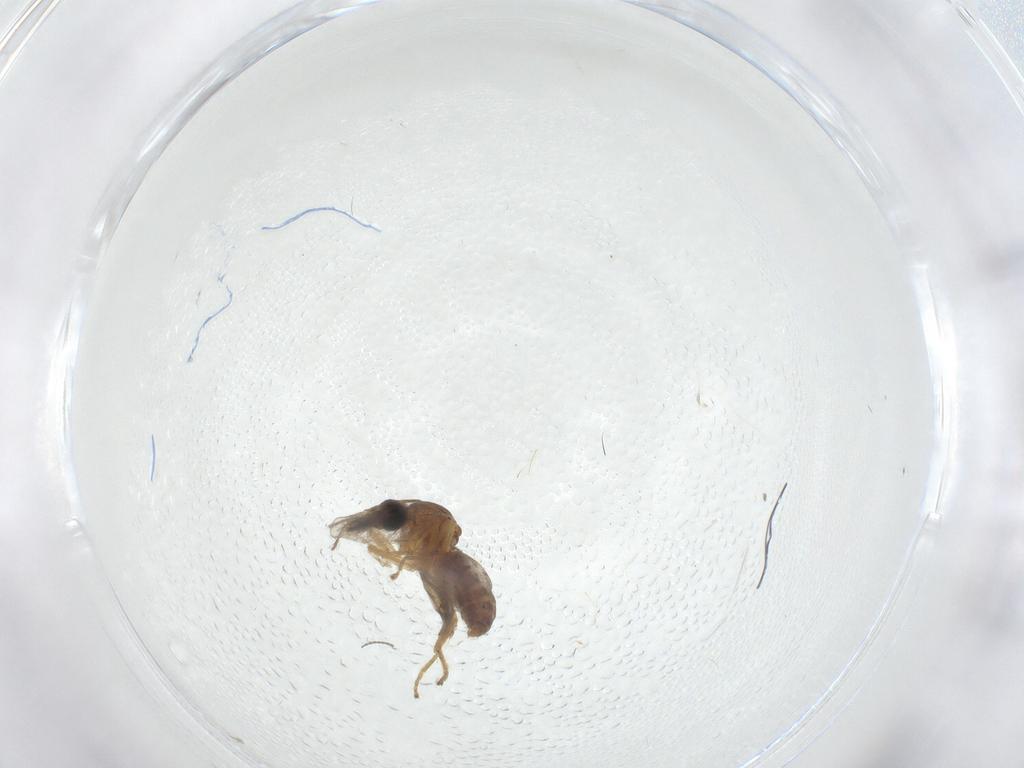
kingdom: Animalia
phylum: Arthropoda
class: Insecta
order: Diptera
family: Ceratopogonidae
